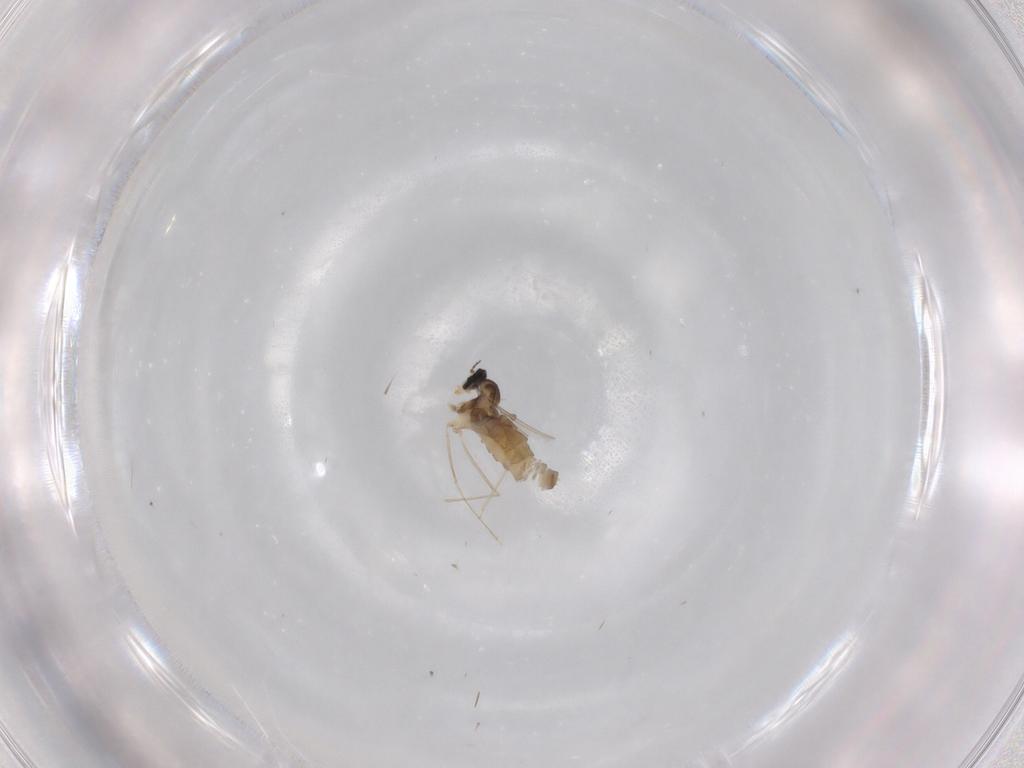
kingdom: Animalia
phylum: Arthropoda
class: Insecta
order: Diptera
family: Cecidomyiidae
